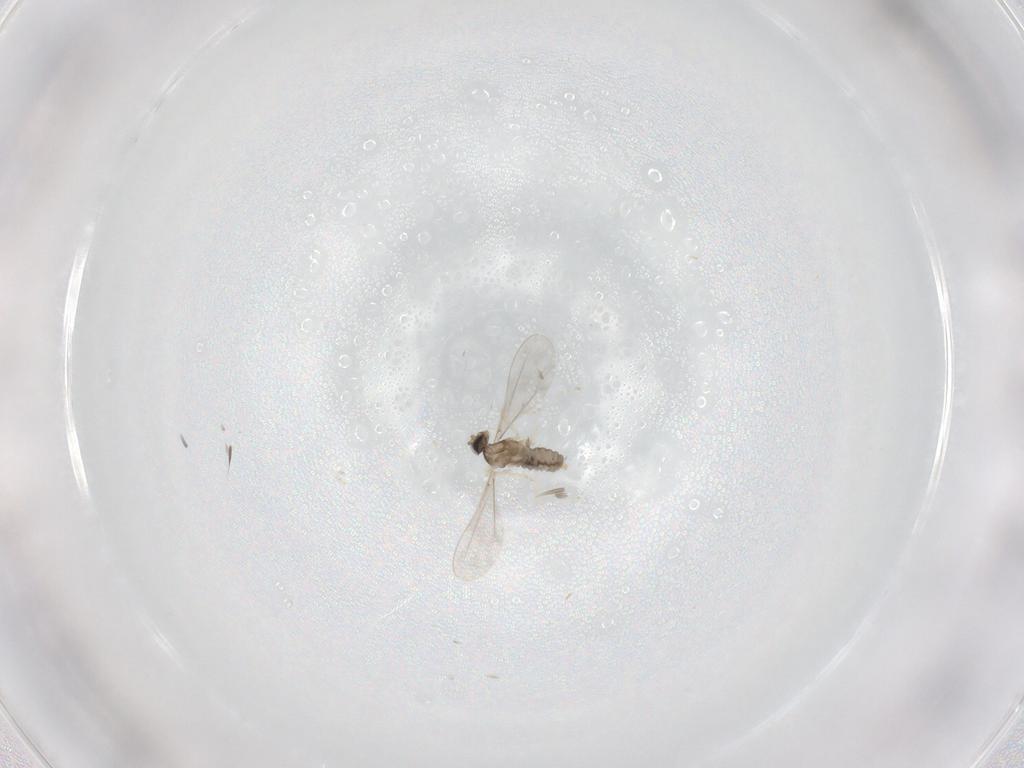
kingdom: Animalia
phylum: Arthropoda
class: Insecta
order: Diptera
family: Cecidomyiidae
